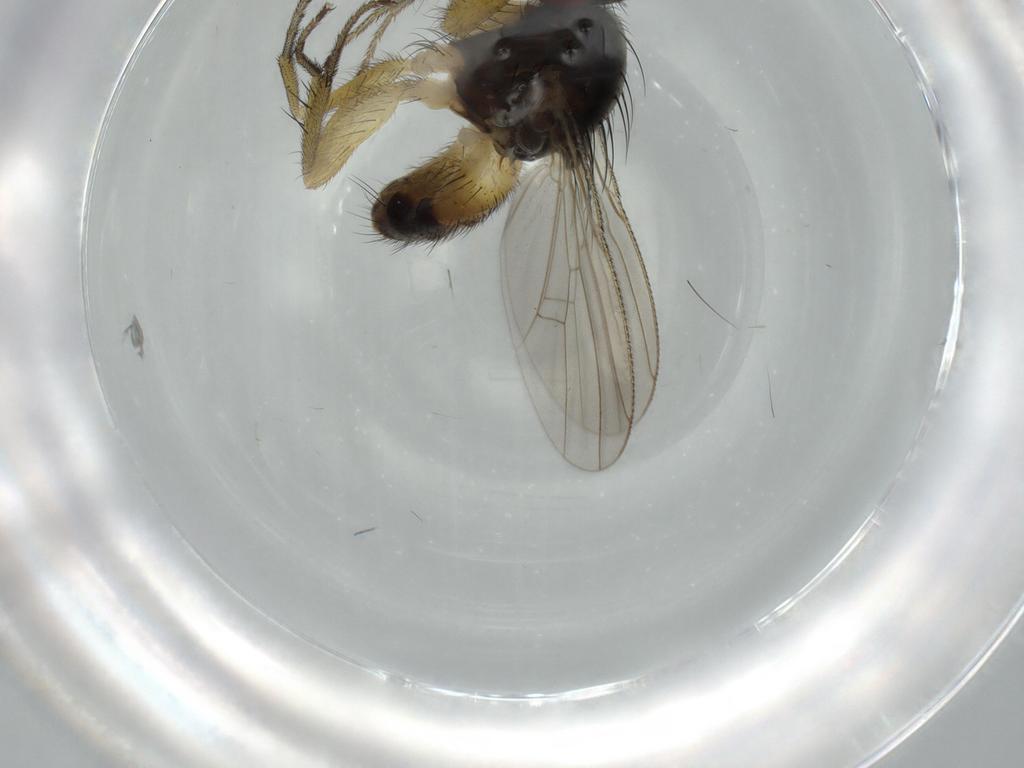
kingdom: Animalia
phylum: Arthropoda
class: Insecta
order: Diptera
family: Muscidae
